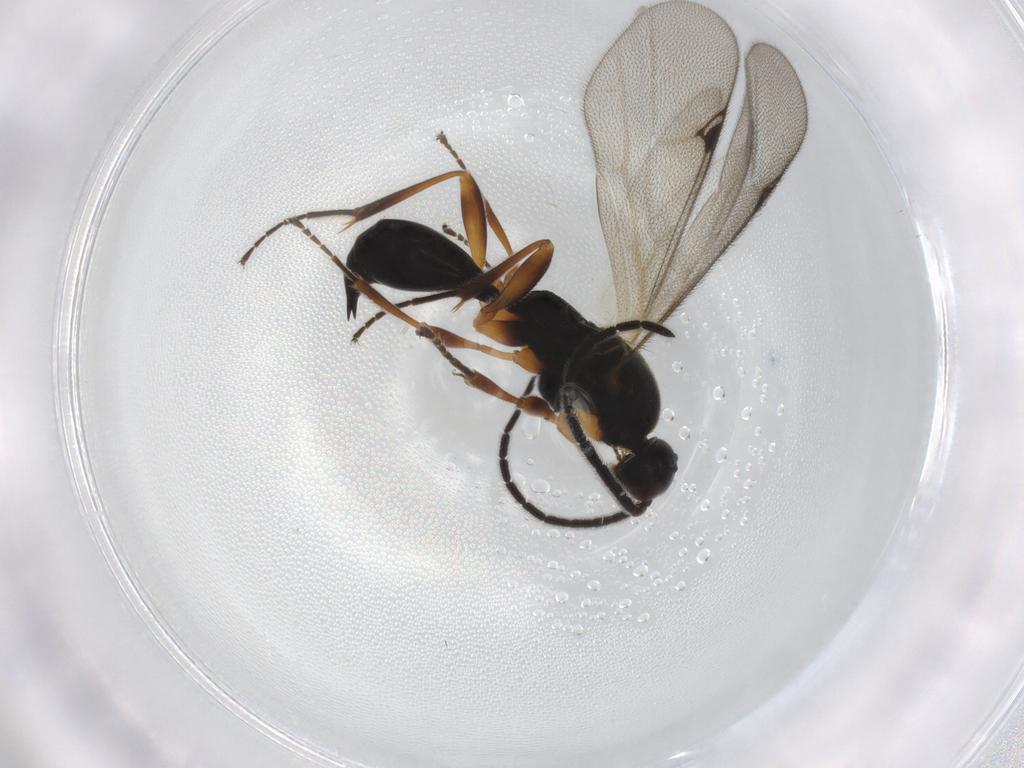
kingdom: Animalia
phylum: Arthropoda
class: Insecta
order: Hymenoptera
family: Proctotrupidae
